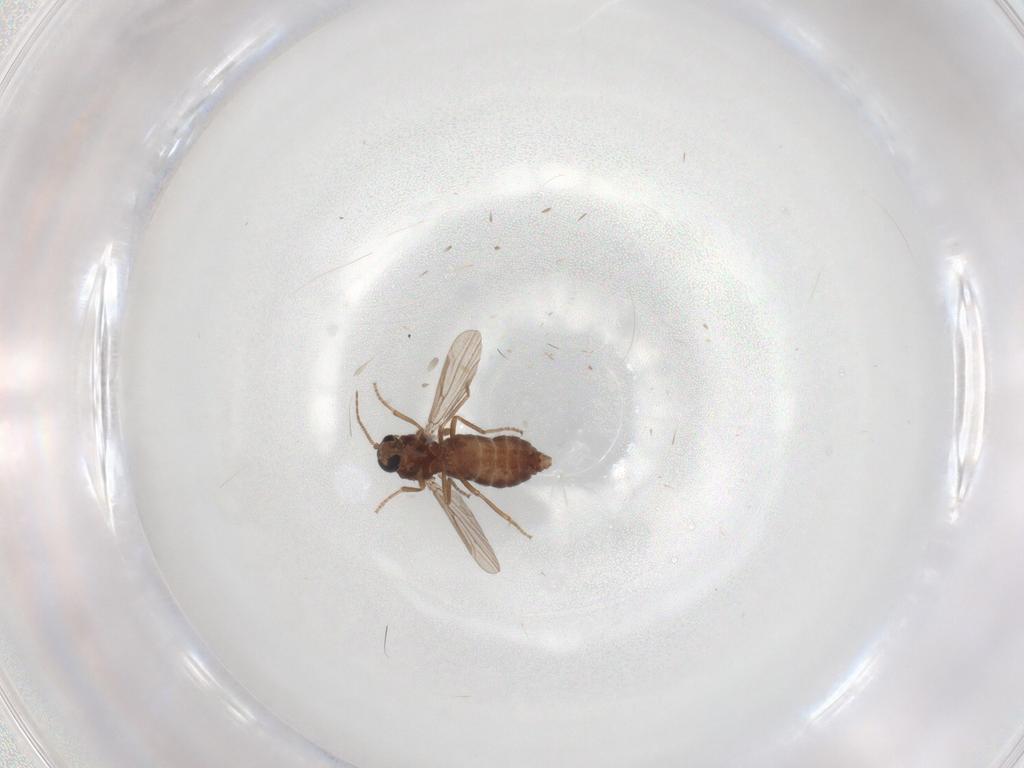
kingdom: Animalia
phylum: Arthropoda
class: Insecta
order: Diptera
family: Ceratopogonidae
